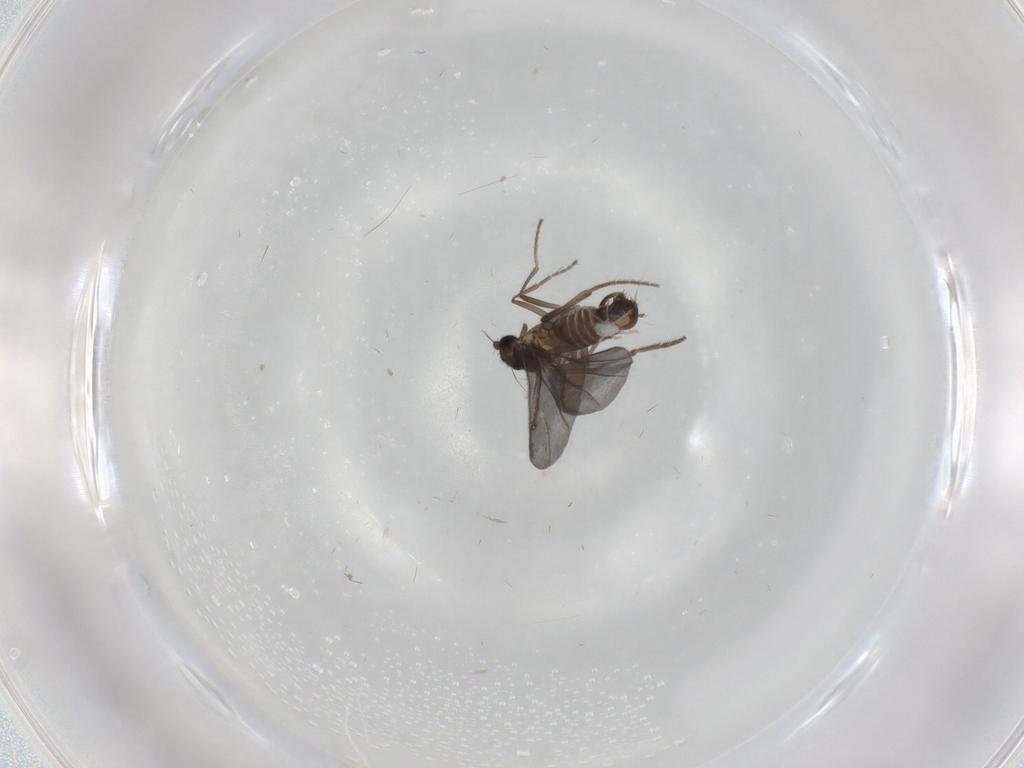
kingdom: Animalia
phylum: Arthropoda
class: Insecta
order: Diptera
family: Phoridae
